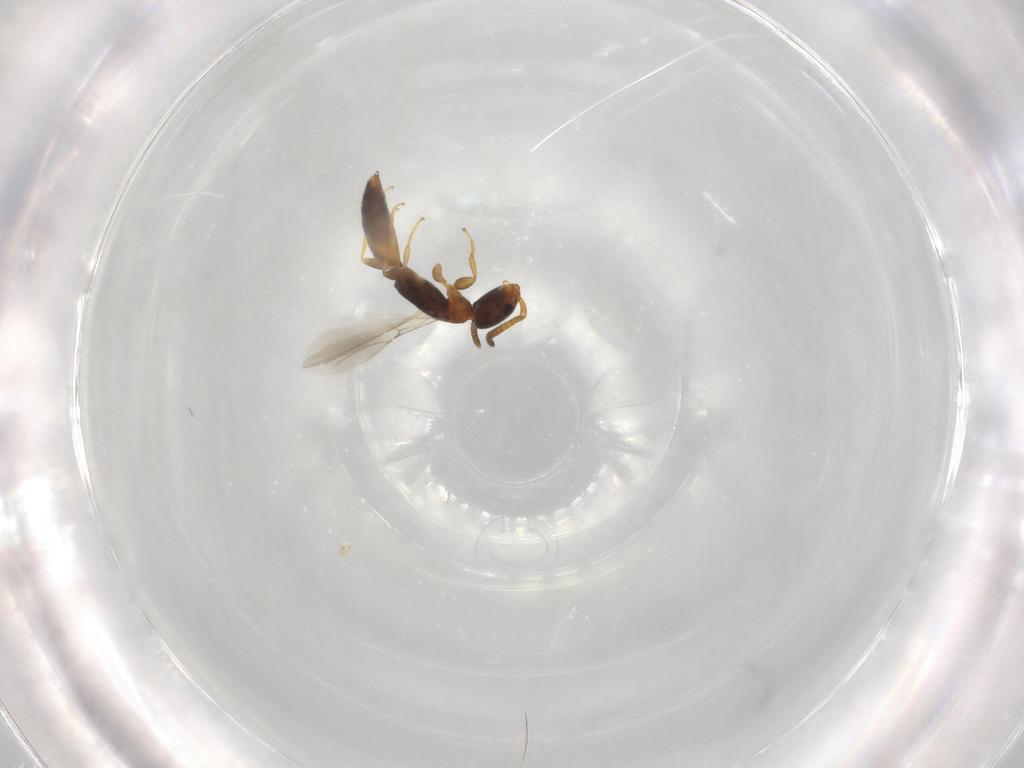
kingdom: Animalia
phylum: Arthropoda
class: Insecta
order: Hymenoptera
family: Bethylidae
